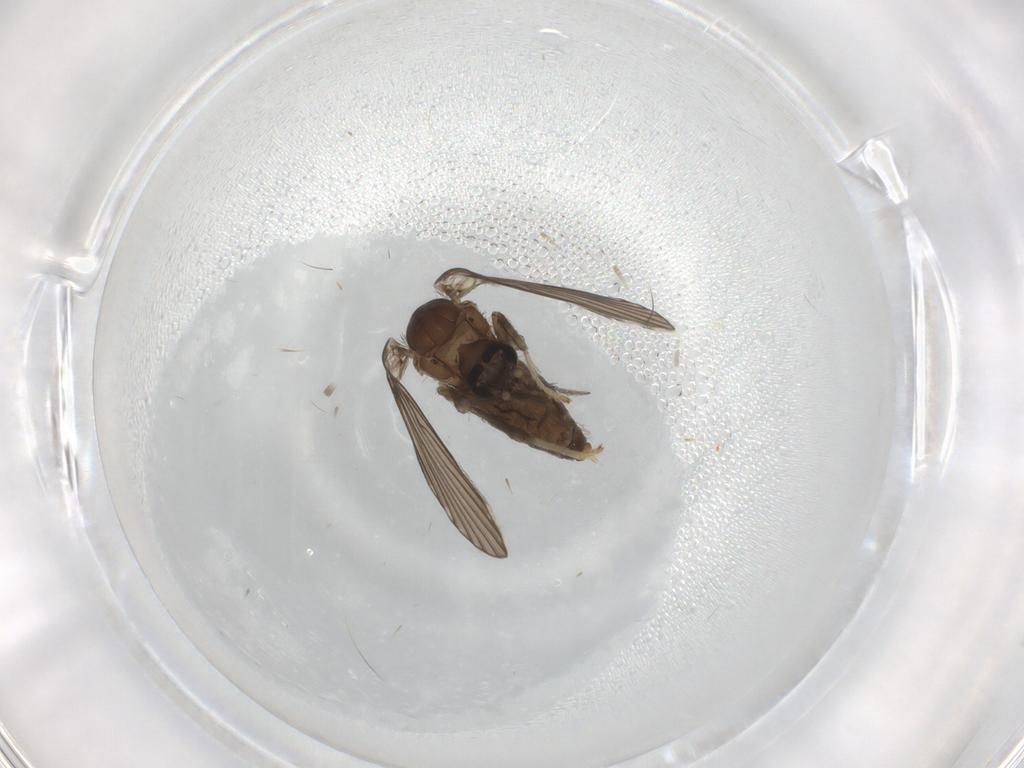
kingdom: Animalia
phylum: Arthropoda
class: Insecta
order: Diptera
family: Psychodidae
